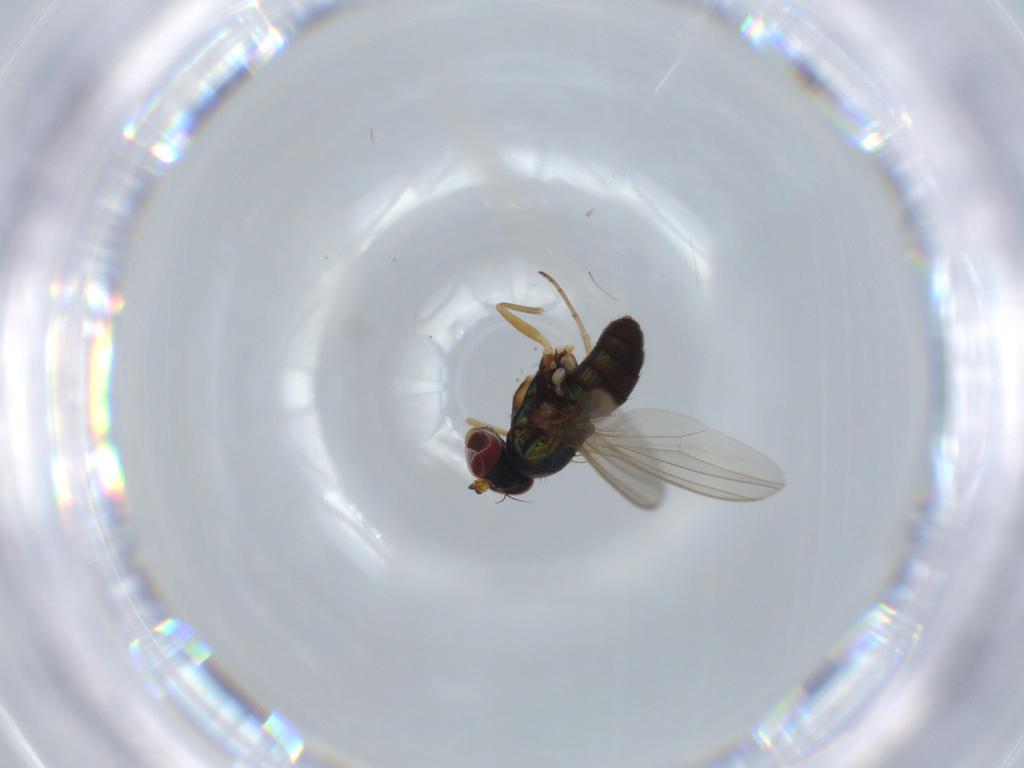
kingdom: Animalia
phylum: Arthropoda
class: Insecta
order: Diptera
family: Dolichopodidae
